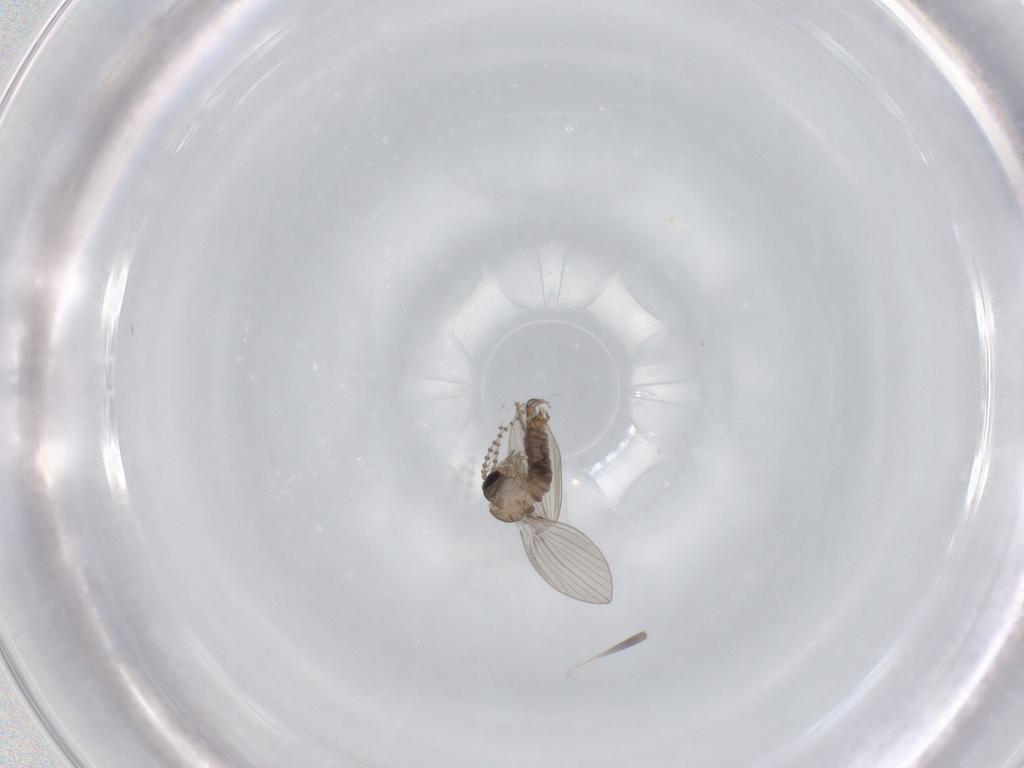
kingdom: Animalia
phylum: Arthropoda
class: Insecta
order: Diptera
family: Psychodidae
